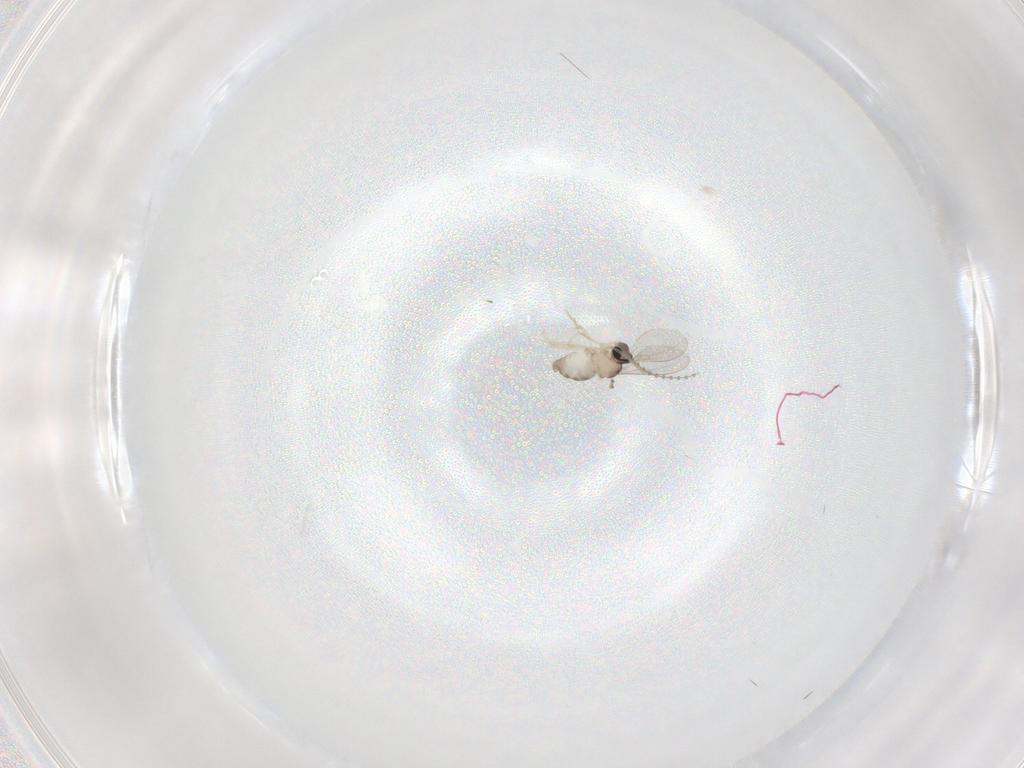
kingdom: Animalia
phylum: Arthropoda
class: Insecta
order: Diptera
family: Cecidomyiidae
